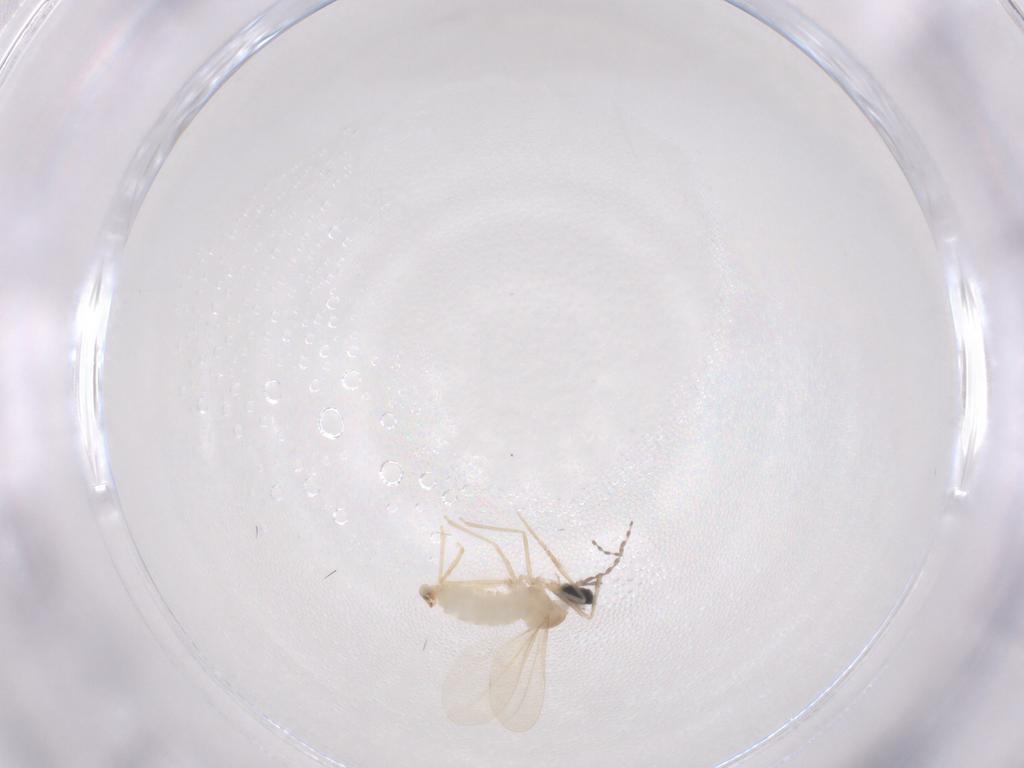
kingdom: Animalia
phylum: Arthropoda
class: Insecta
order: Diptera
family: Cecidomyiidae
